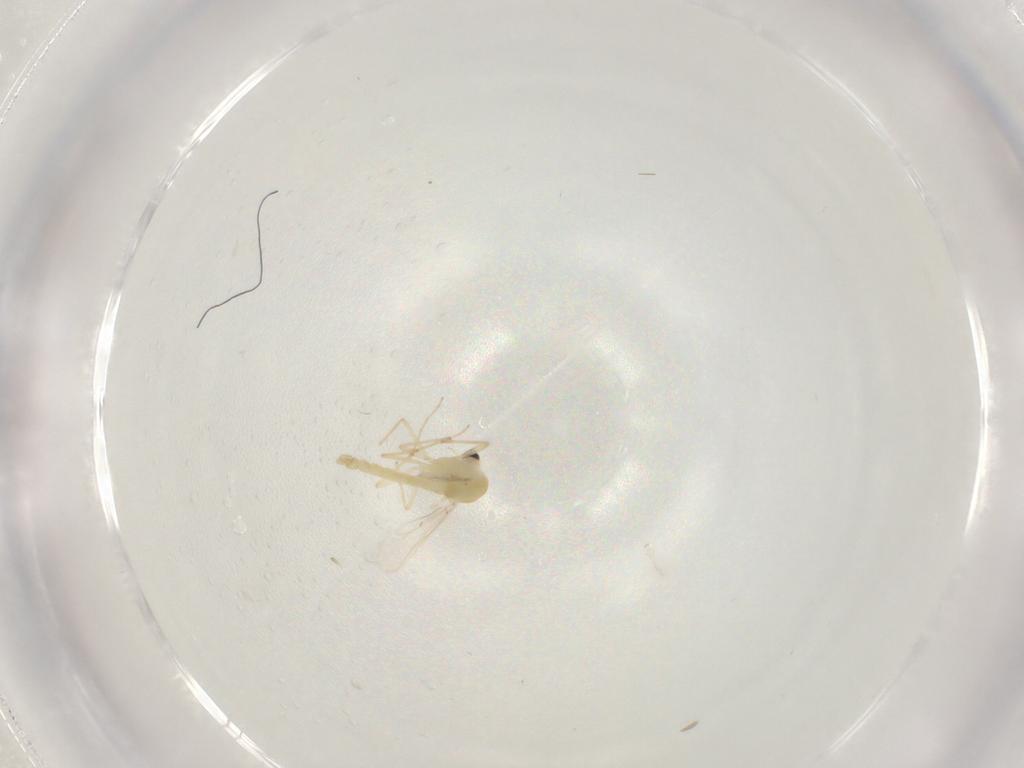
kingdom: Animalia
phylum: Arthropoda
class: Insecta
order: Diptera
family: Chironomidae
